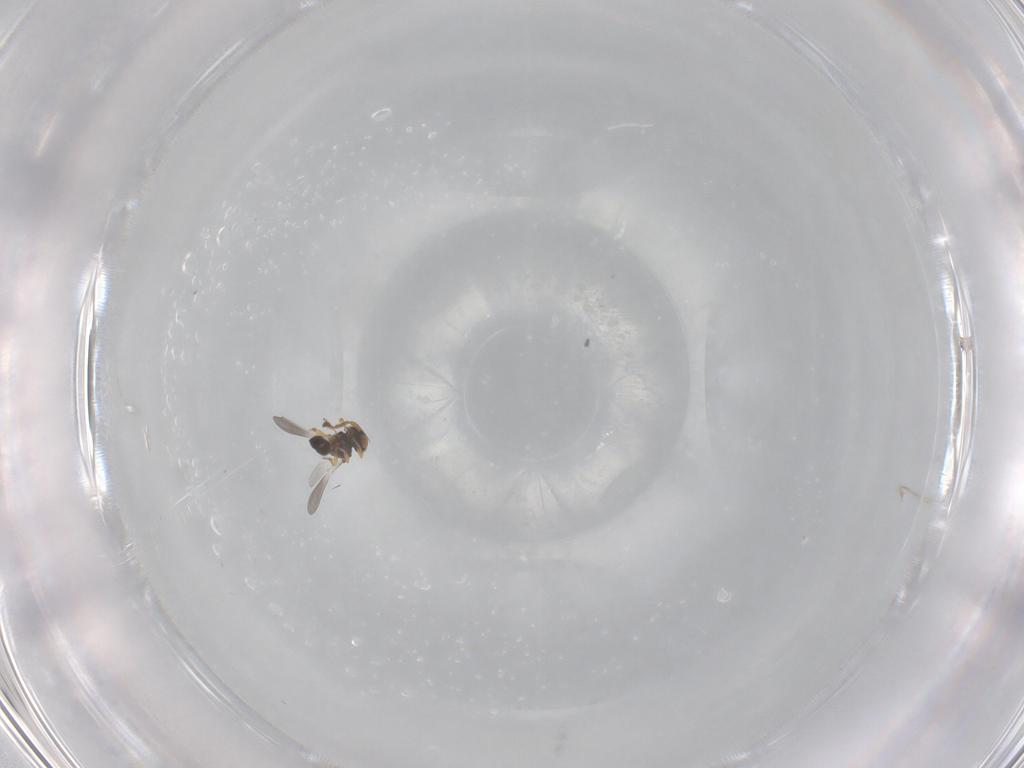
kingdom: Animalia
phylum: Arthropoda
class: Insecta
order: Hymenoptera
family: Platygastridae
